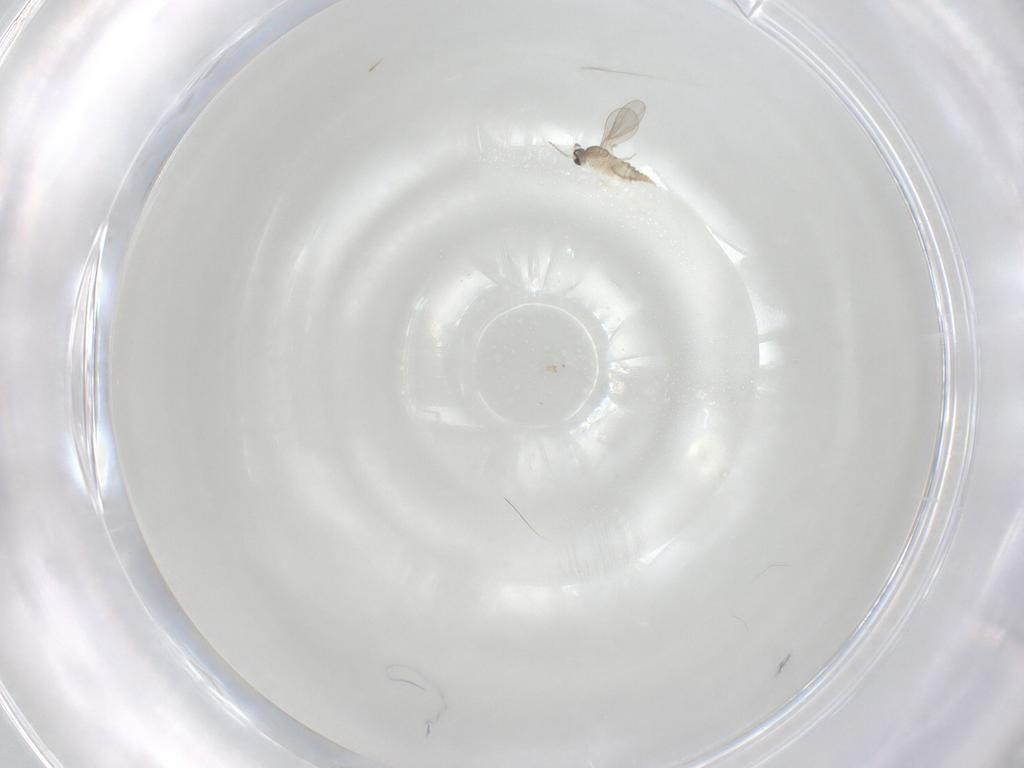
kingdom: Animalia
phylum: Arthropoda
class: Insecta
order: Diptera
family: Cecidomyiidae
